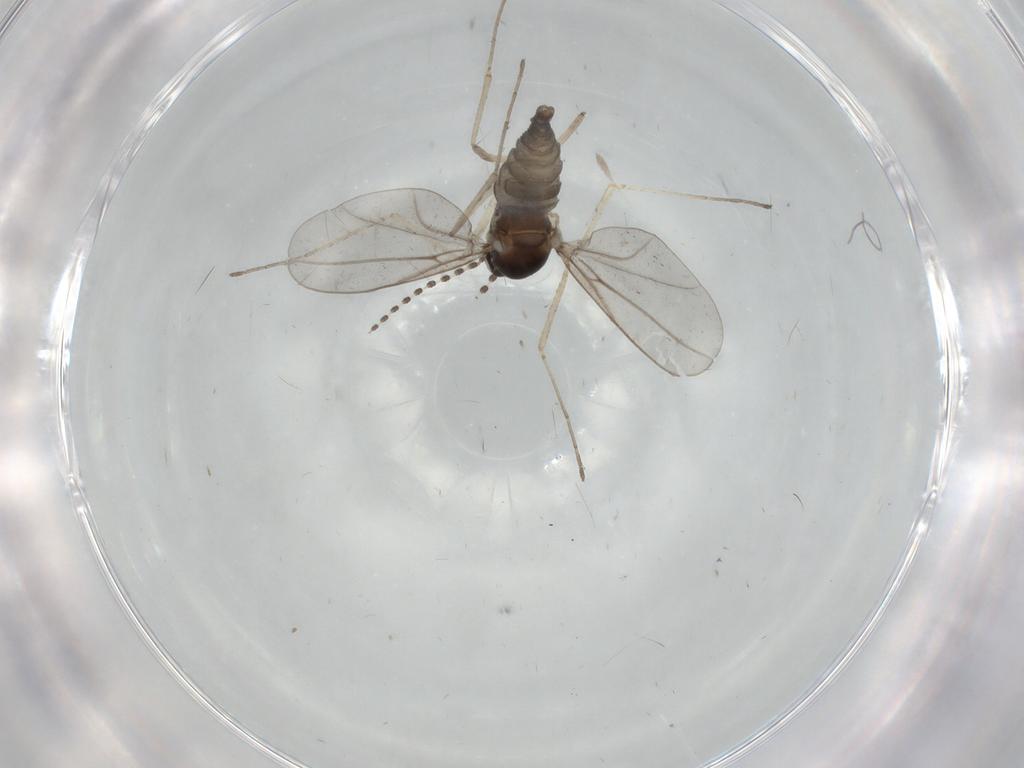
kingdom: Animalia
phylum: Arthropoda
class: Insecta
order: Diptera
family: Cecidomyiidae
